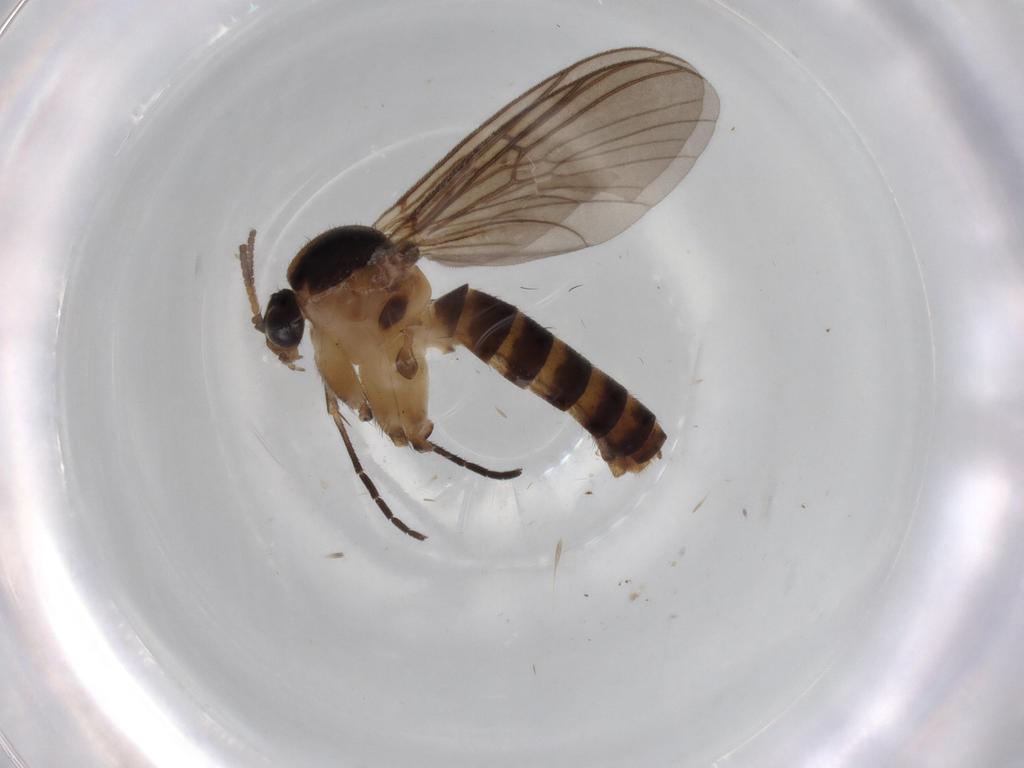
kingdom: Animalia
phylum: Arthropoda
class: Insecta
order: Diptera
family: Mycetophilidae
